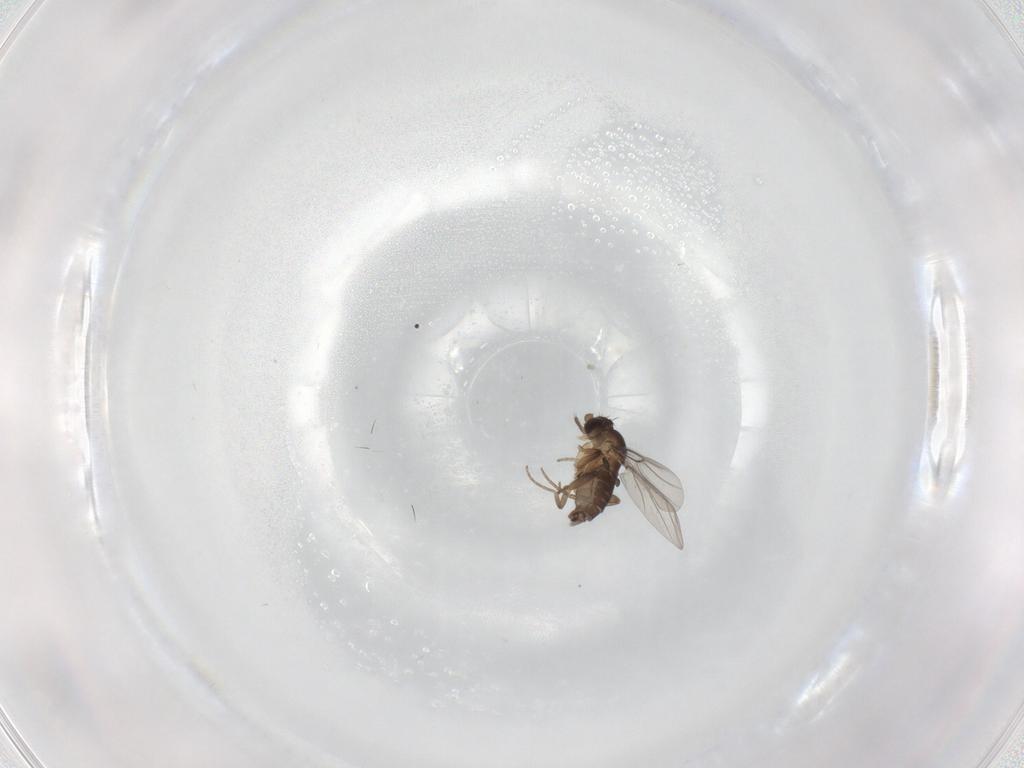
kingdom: Animalia
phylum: Arthropoda
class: Insecta
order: Diptera
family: Phoridae
